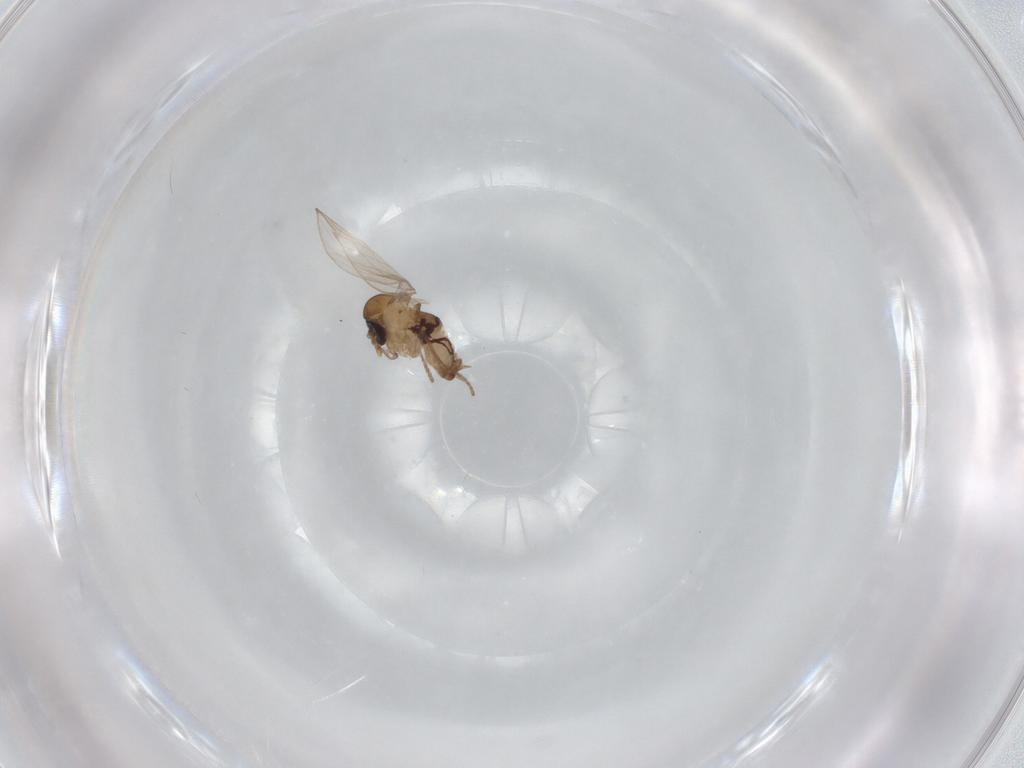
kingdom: Animalia
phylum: Arthropoda
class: Insecta
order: Diptera
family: Psychodidae
